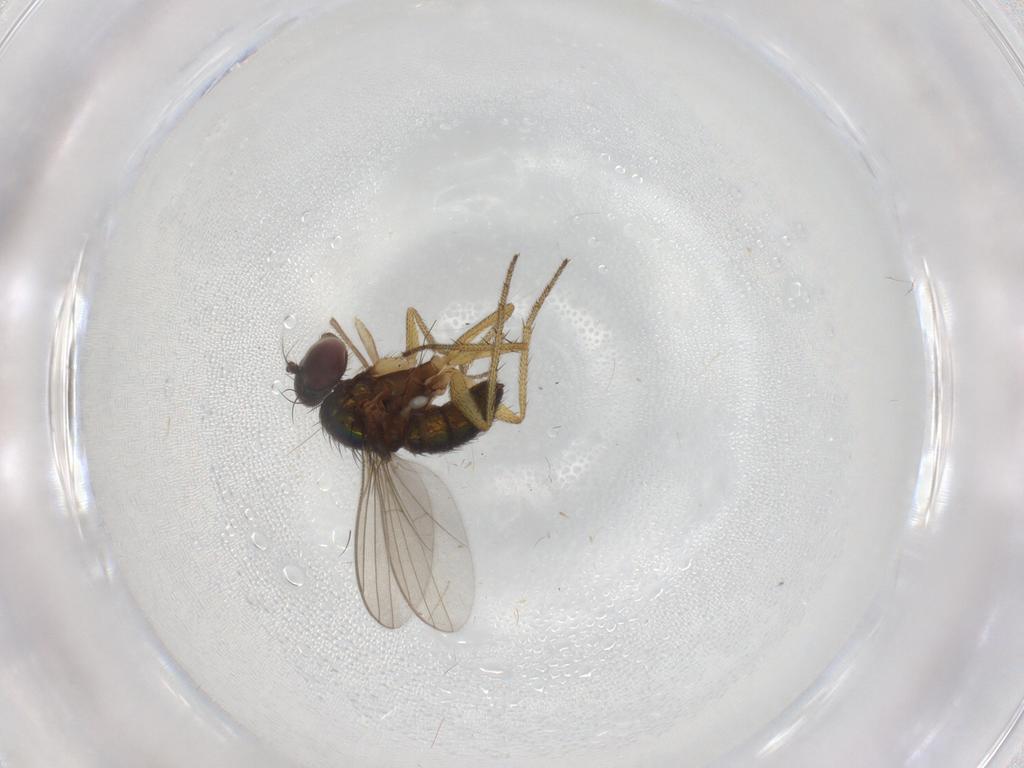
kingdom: Animalia
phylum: Arthropoda
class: Insecta
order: Diptera
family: Dolichopodidae
